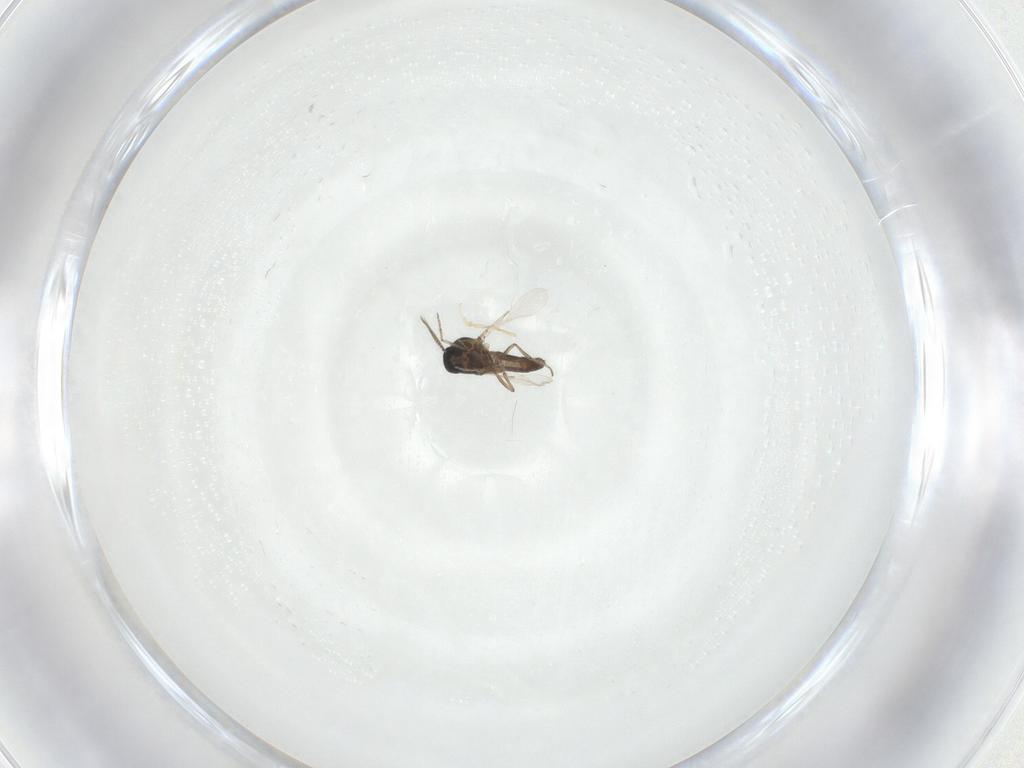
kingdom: Animalia
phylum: Arthropoda
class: Insecta
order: Diptera
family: Ceratopogonidae
